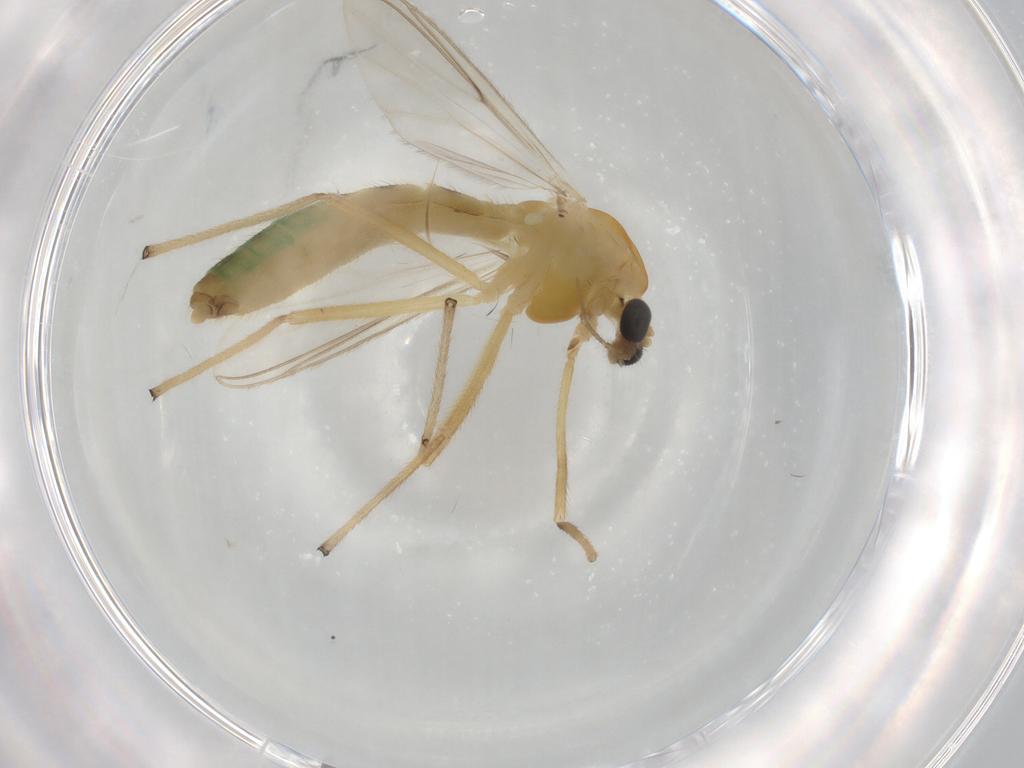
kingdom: Animalia
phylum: Arthropoda
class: Insecta
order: Diptera
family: Chironomidae
